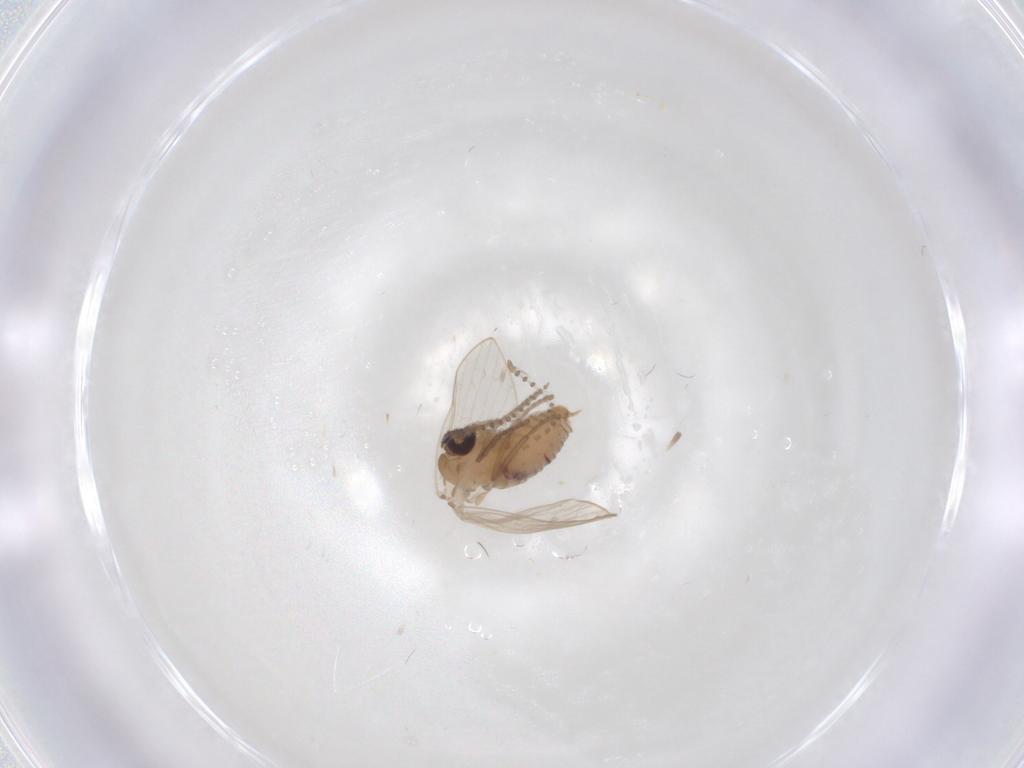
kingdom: Animalia
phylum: Arthropoda
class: Insecta
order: Diptera
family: Psychodidae
